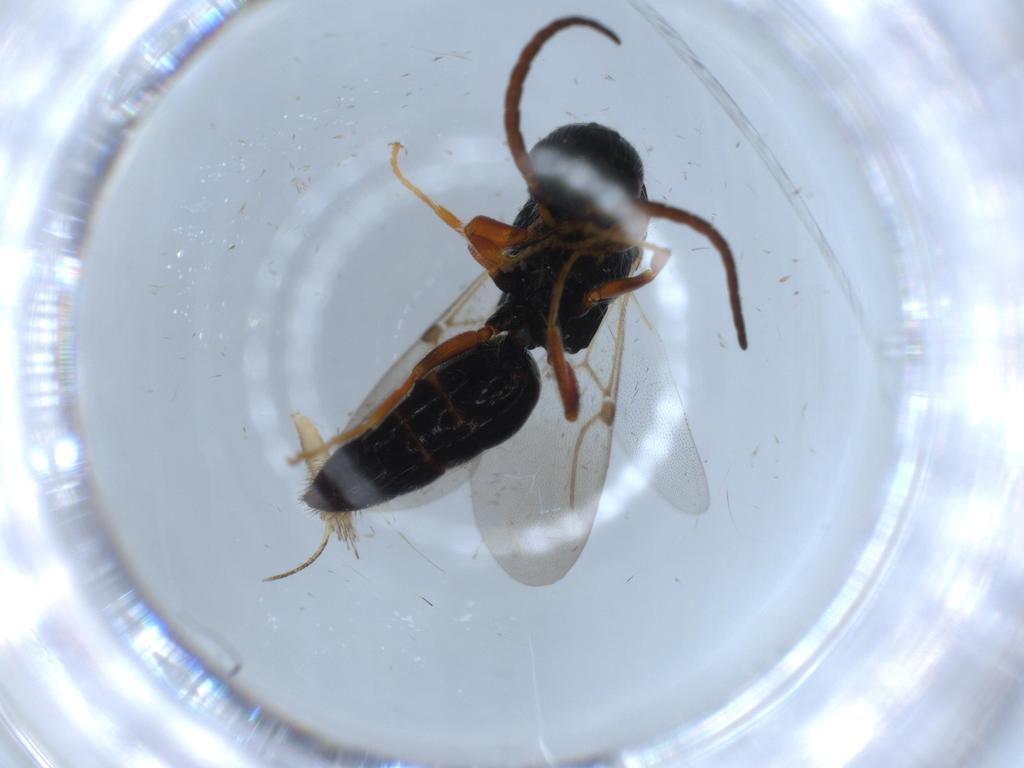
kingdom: Animalia
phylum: Arthropoda
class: Insecta
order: Hymenoptera
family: Bethylidae
